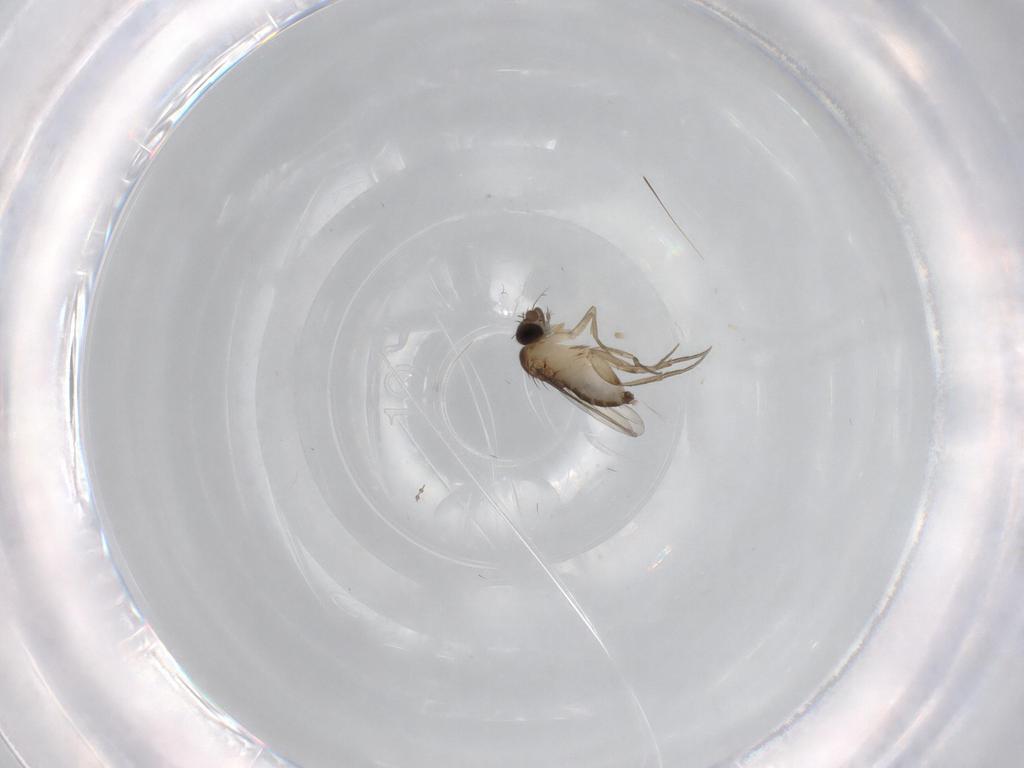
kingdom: Animalia
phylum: Arthropoda
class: Insecta
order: Diptera
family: Phoridae
